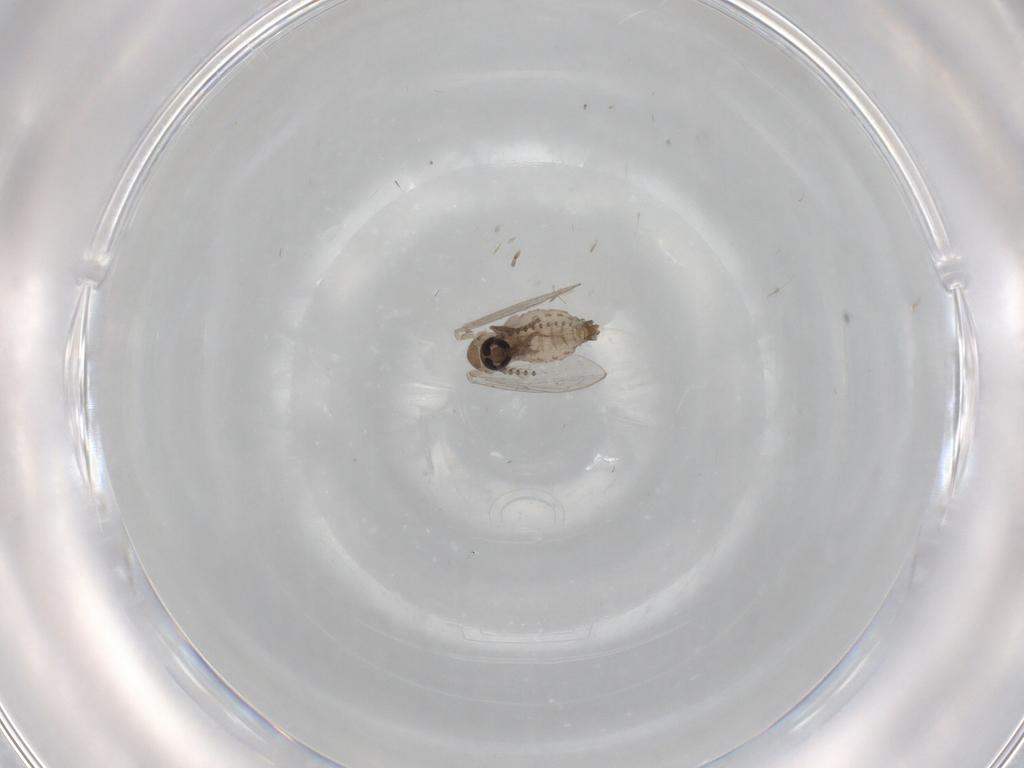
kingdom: Animalia
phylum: Arthropoda
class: Insecta
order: Diptera
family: Psychodidae
